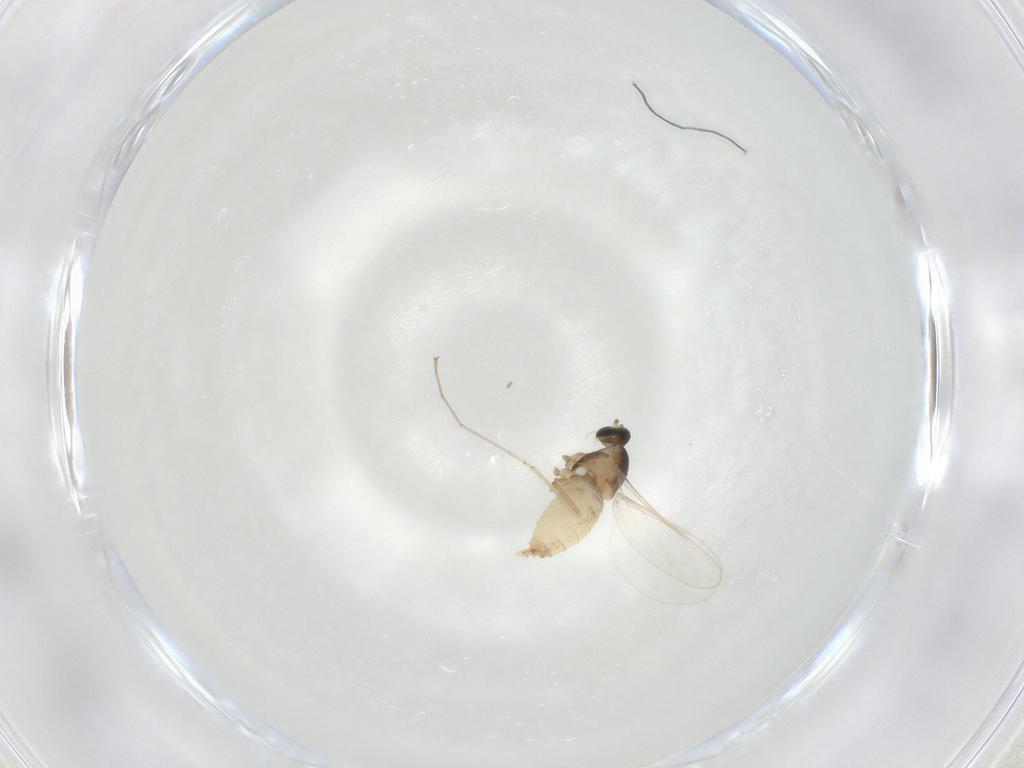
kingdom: Animalia
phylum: Arthropoda
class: Insecta
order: Diptera
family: Cecidomyiidae
